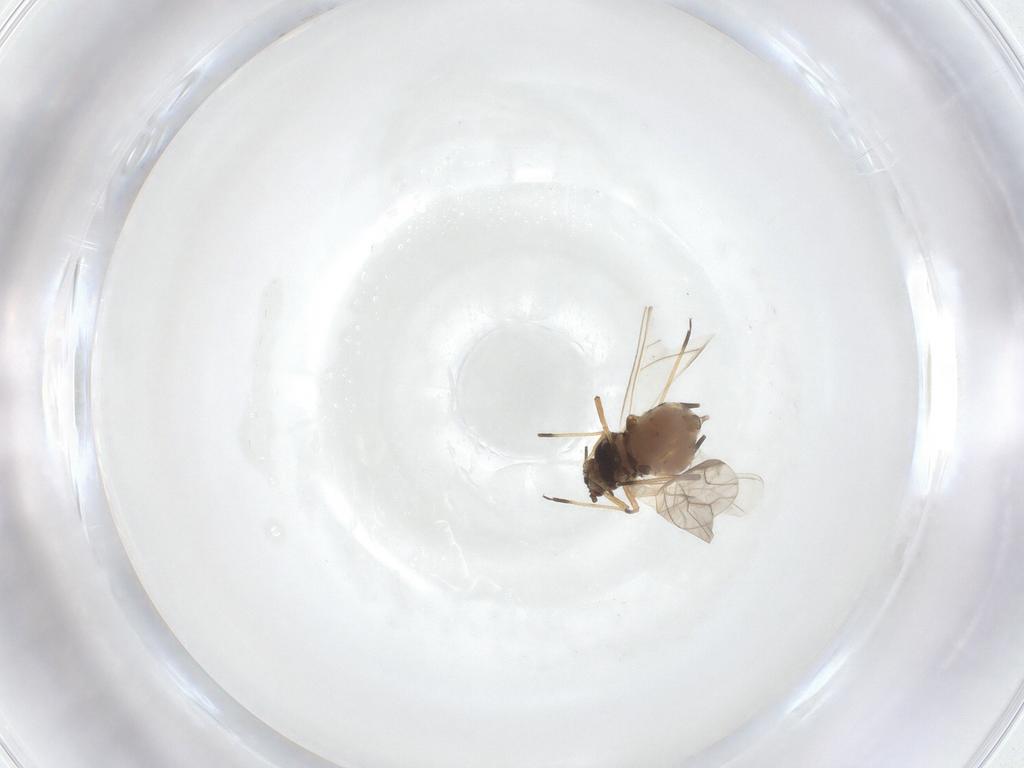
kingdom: Animalia
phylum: Arthropoda
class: Insecta
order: Hemiptera
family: Aphididae
